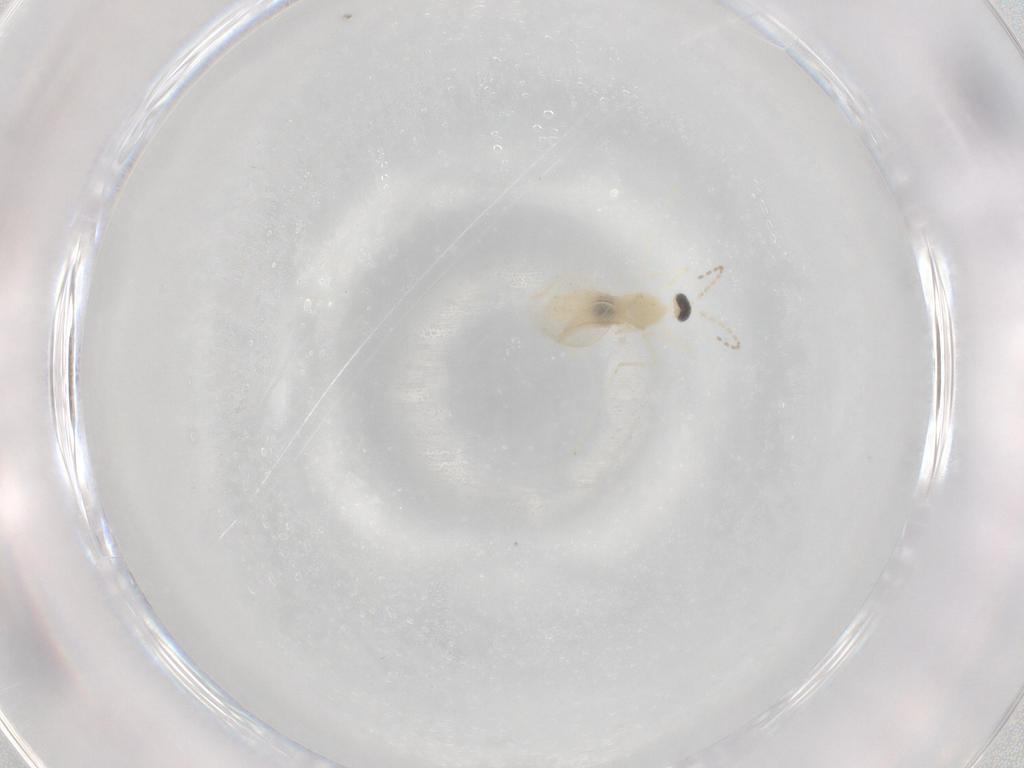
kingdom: Animalia
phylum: Arthropoda
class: Insecta
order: Diptera
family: Cecidomyiidae
